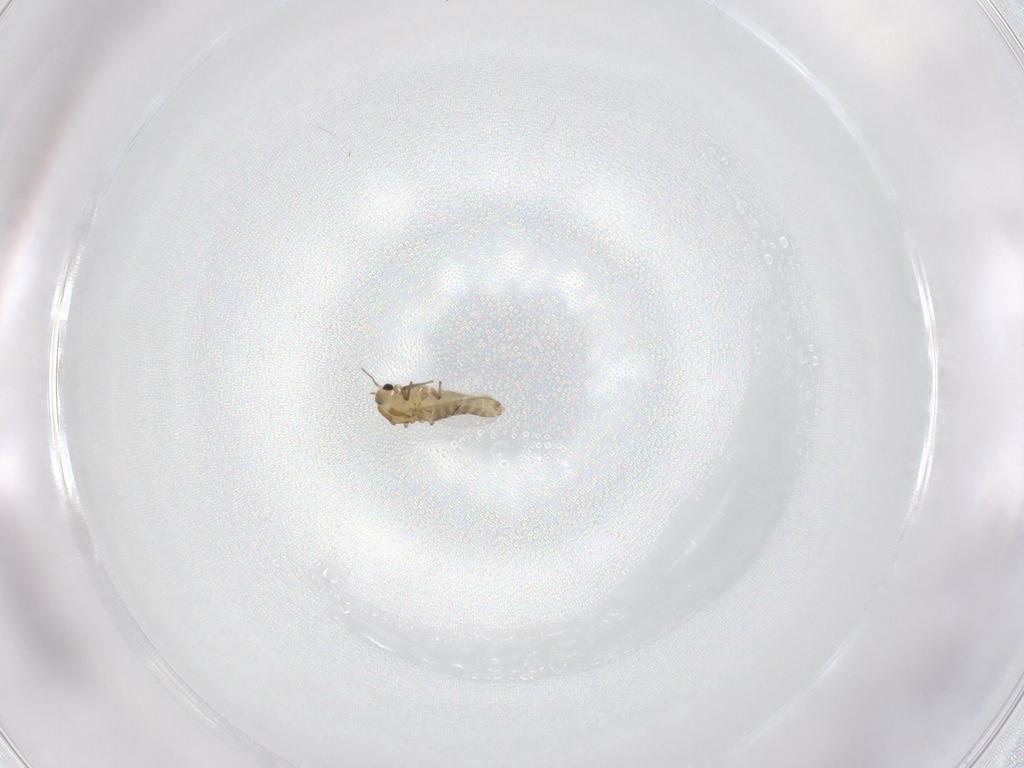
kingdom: Animalia
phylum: Arthropoda
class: Insecta
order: Diptera
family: Chironomidae
